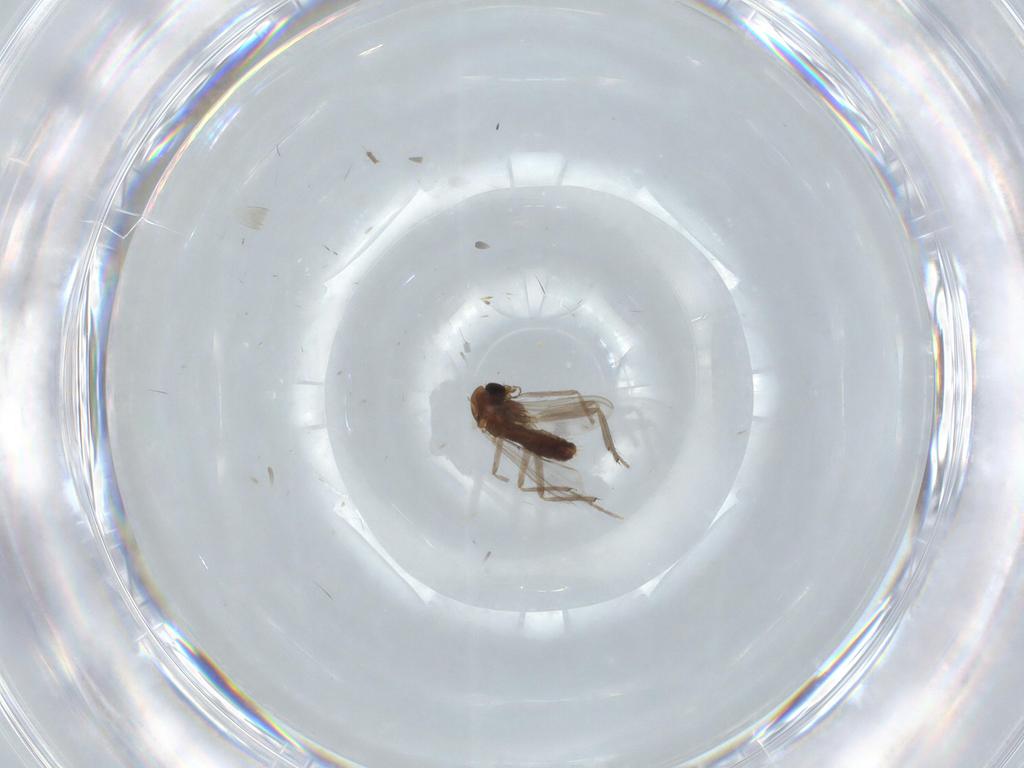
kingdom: Animalia
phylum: Arthropoda
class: Insecta
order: Diptera
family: Chironomidae
